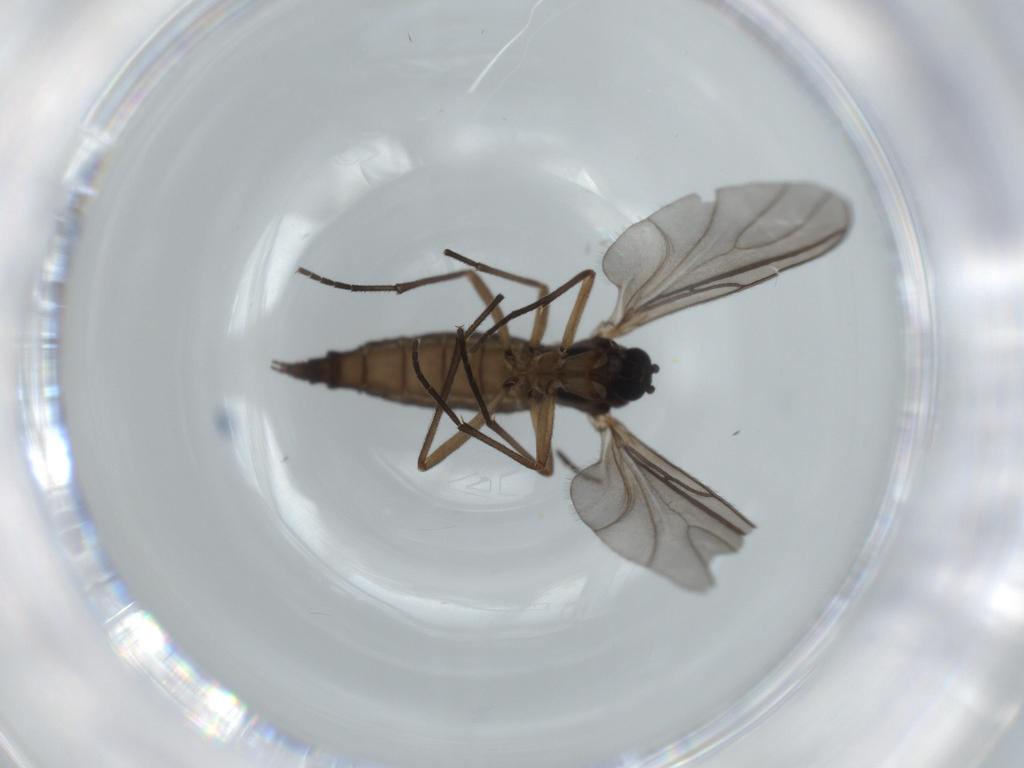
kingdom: Animalia
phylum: Arthropoda
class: Insecta
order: Diptera
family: Sciaridae
